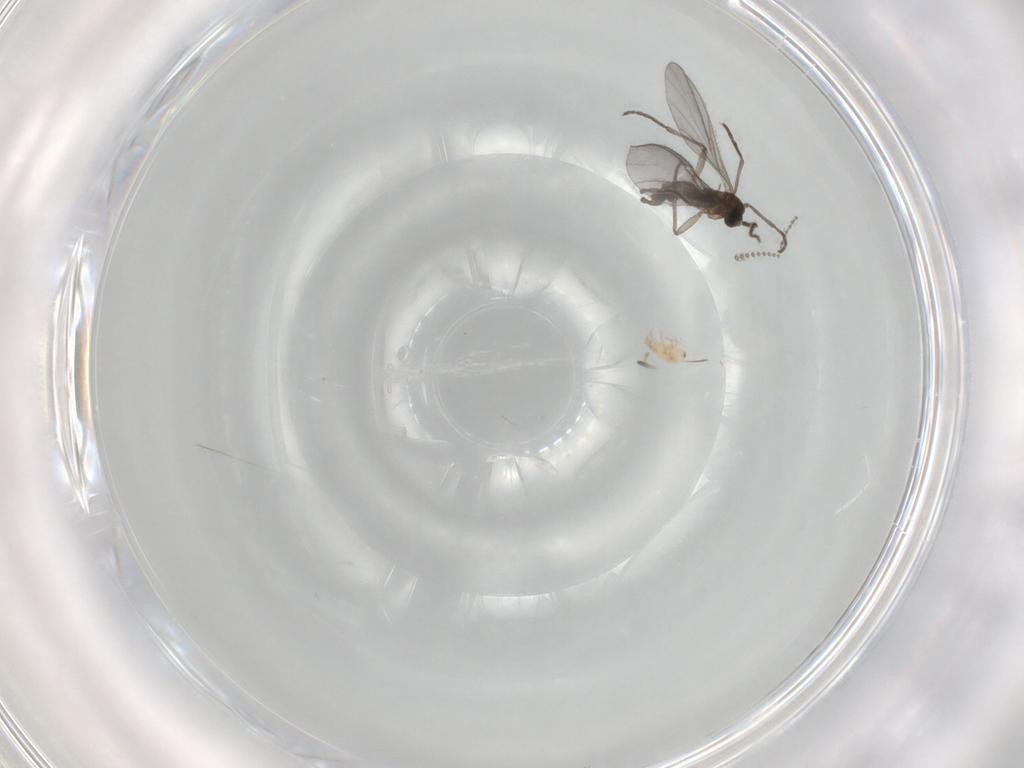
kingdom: Animalia
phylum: Arthropoda
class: Insecta
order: Diptera
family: Sciaridae
